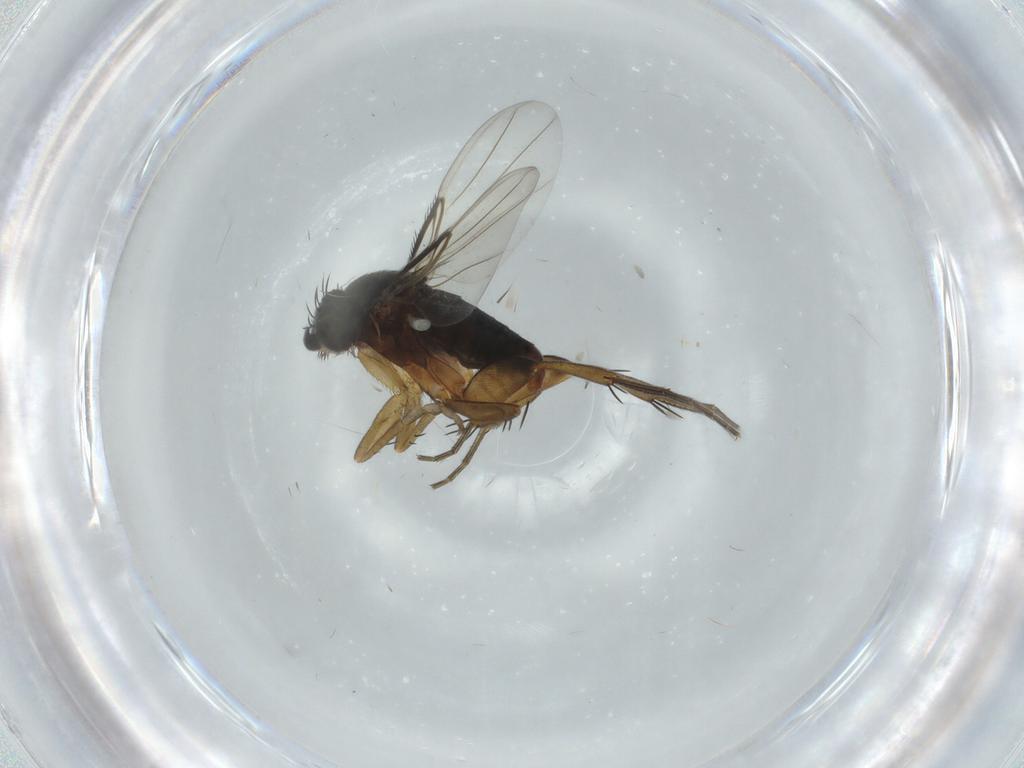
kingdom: Animalia
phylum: Arthropoda
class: Insecta
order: Diptera
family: Phoridae
